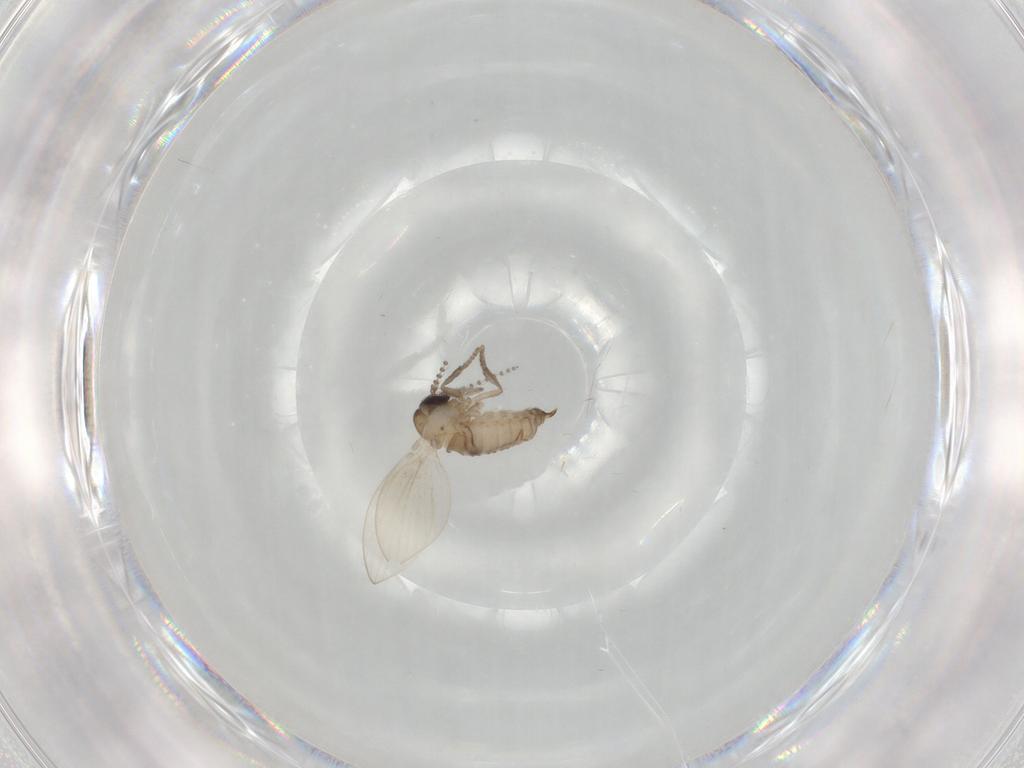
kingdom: Animalia
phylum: Arthropoda
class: Insecta
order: Diptera
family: Psychodidae
